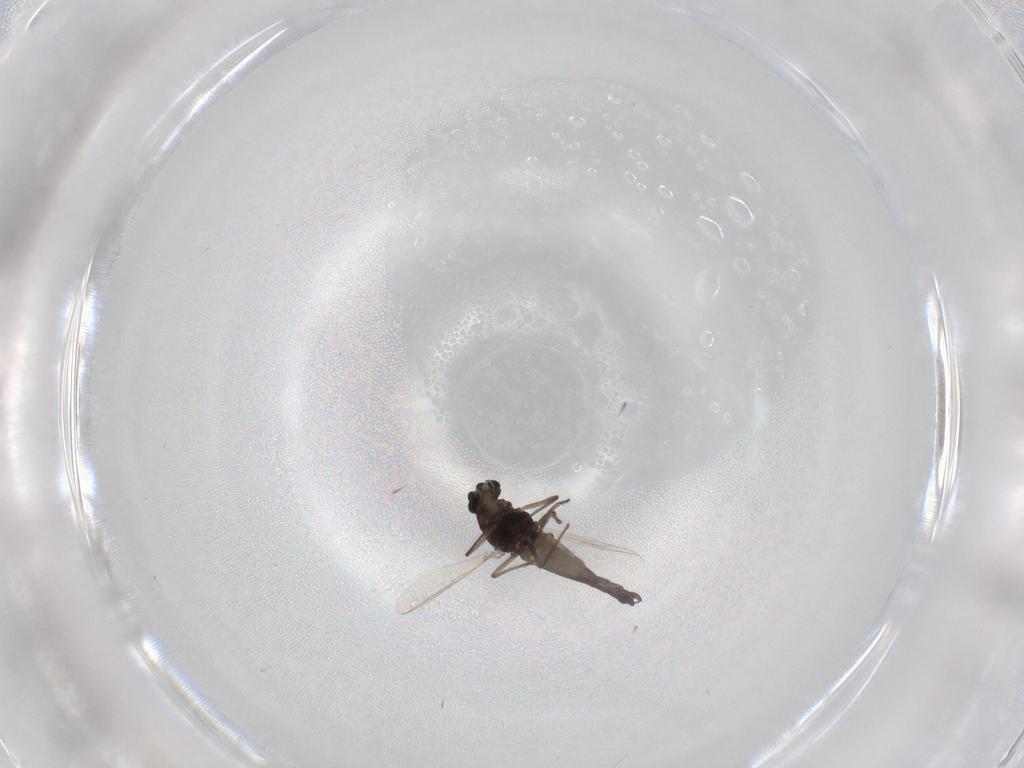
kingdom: Animalia
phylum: Arthropoda
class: Insecta
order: Diptera
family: Chironomidae
